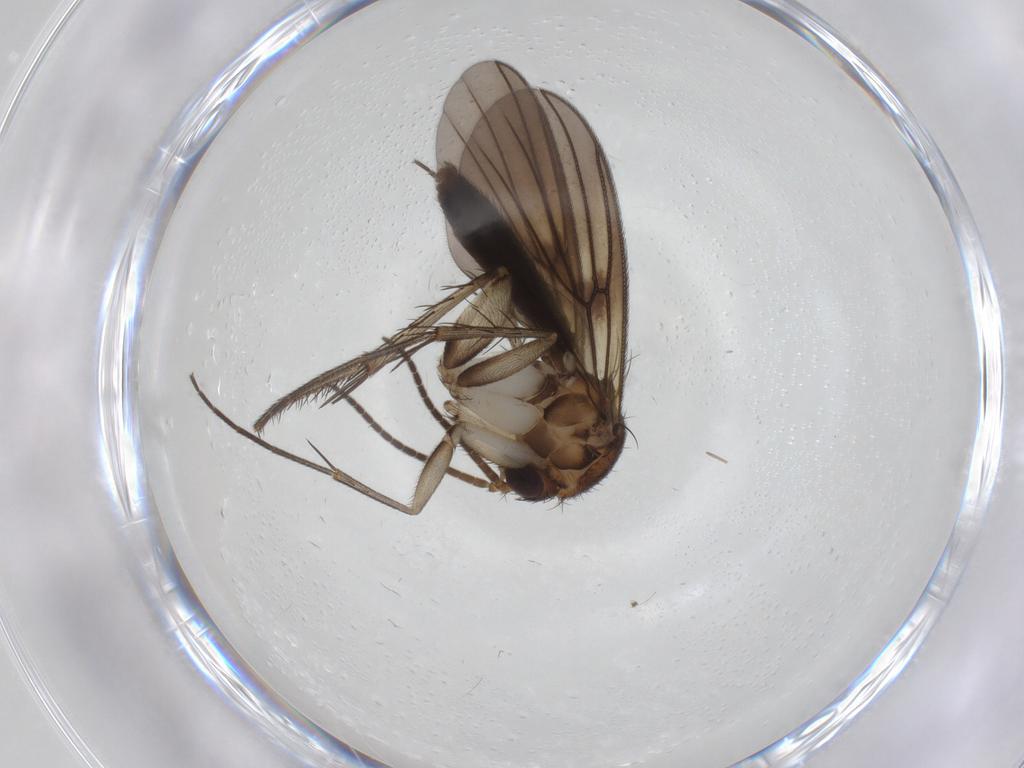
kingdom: Animalia
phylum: Arthropoda
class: Insecta
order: Diptera
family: Mycetophilidae
